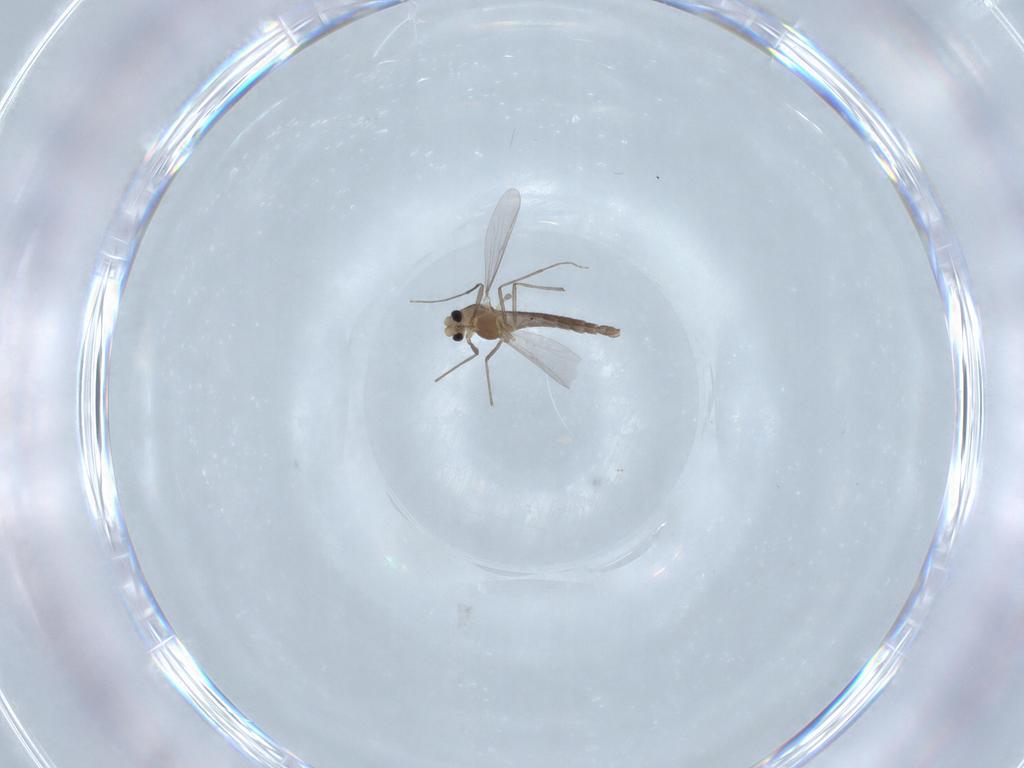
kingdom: Animalia
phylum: Arthropoda
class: Insecta
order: Diptera
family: Chironomidae
